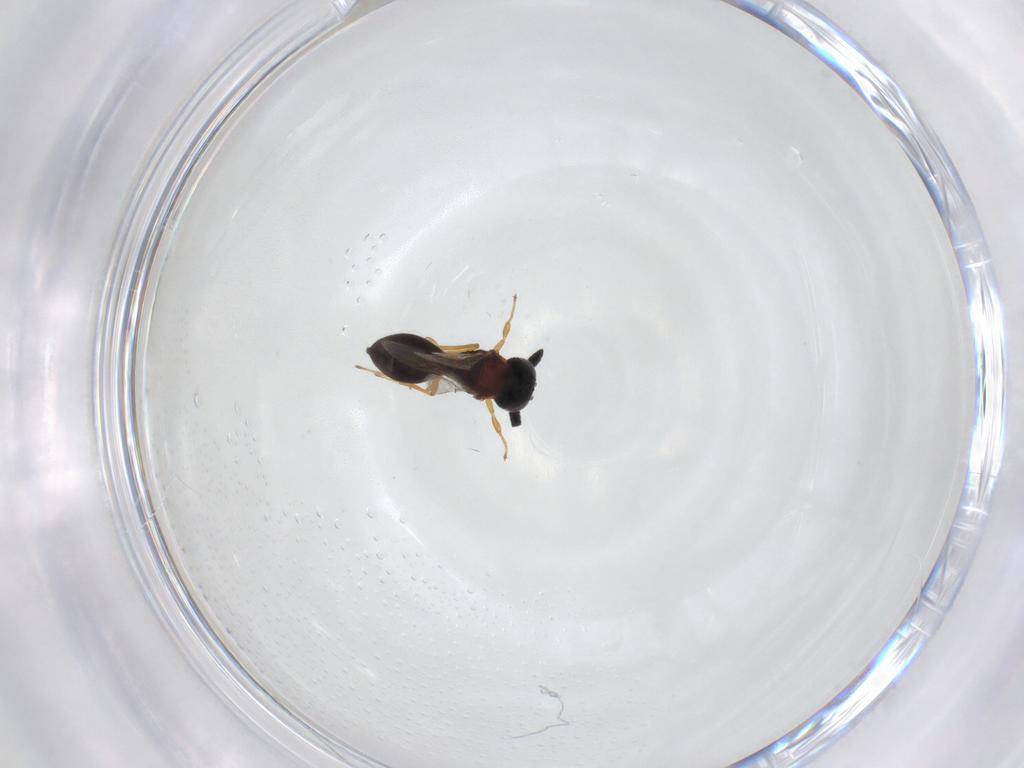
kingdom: Animalia
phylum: Arthropoda
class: Insecta
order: Hymenoptera
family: Scelionidae
